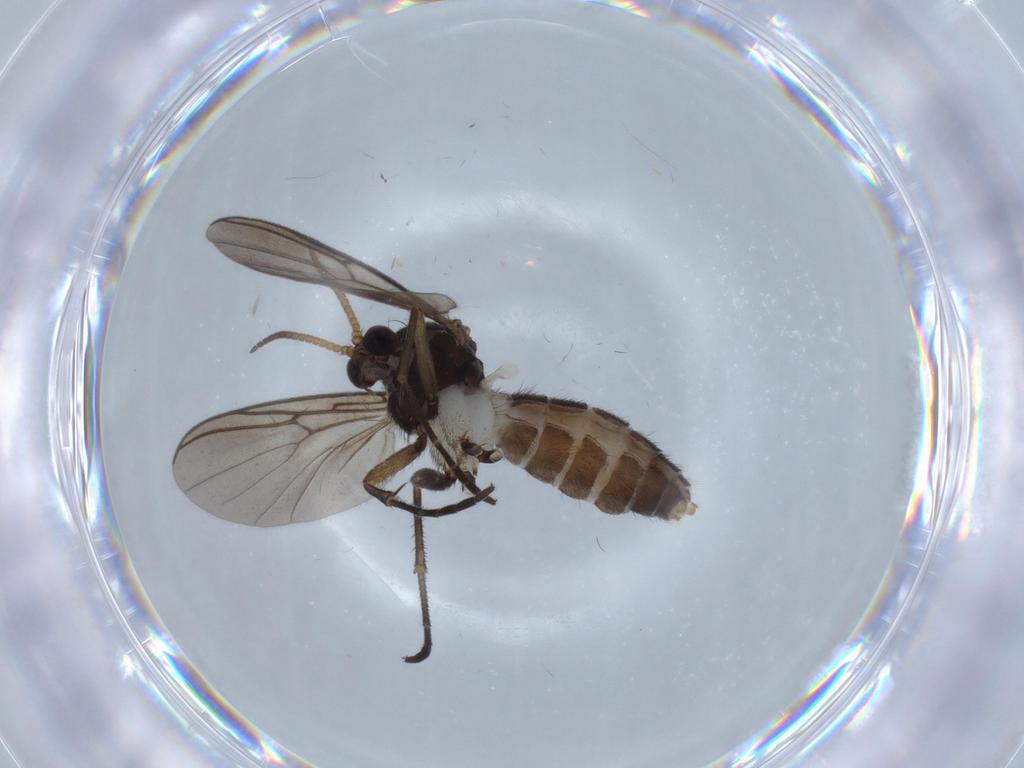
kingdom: Animalia
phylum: Arthropoda
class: Insecta
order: Diptera
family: Mycetophilidae
